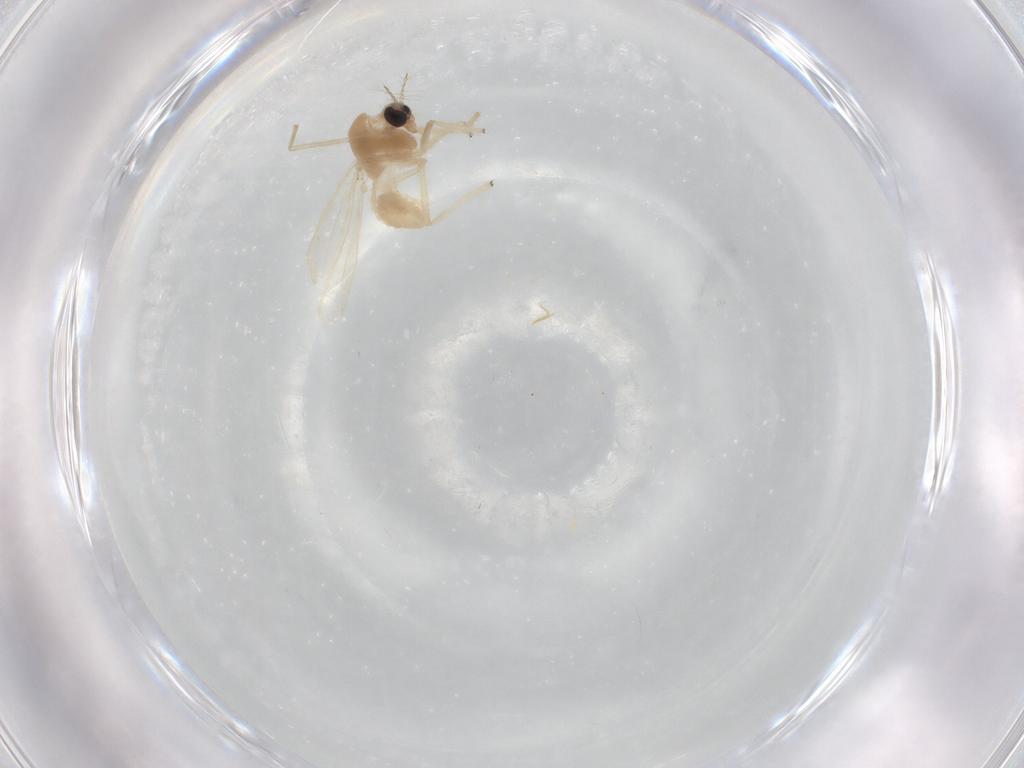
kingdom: Animalia
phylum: Arthropoda
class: Insecta
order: Diptera
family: Chironomidae
